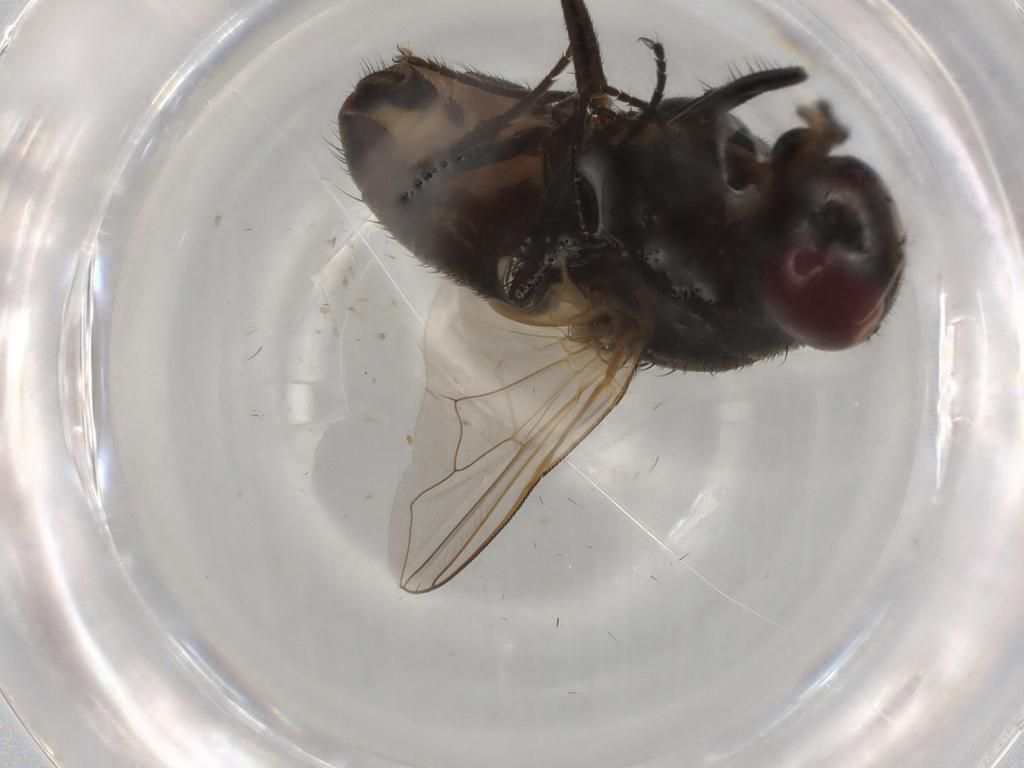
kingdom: Animalia
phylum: Arthropoda
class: Insecta
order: Diptera
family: Muscidae
